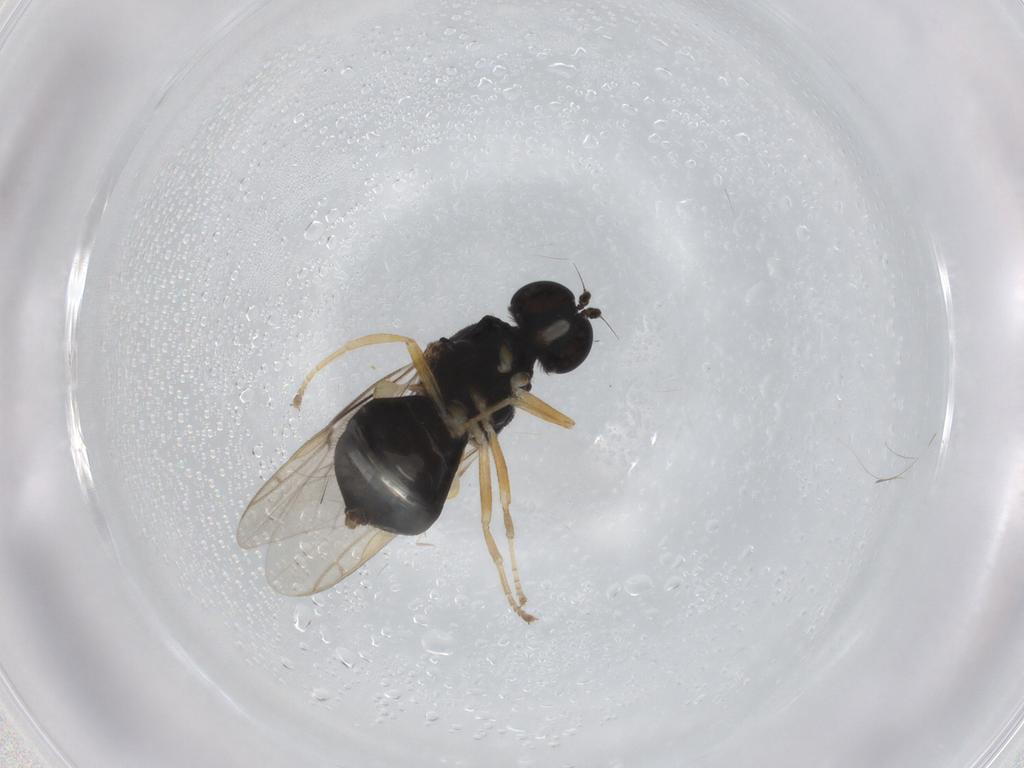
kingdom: Animalia
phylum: Arthropoda
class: Insecta
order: Diptera
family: Stratiomyidae
